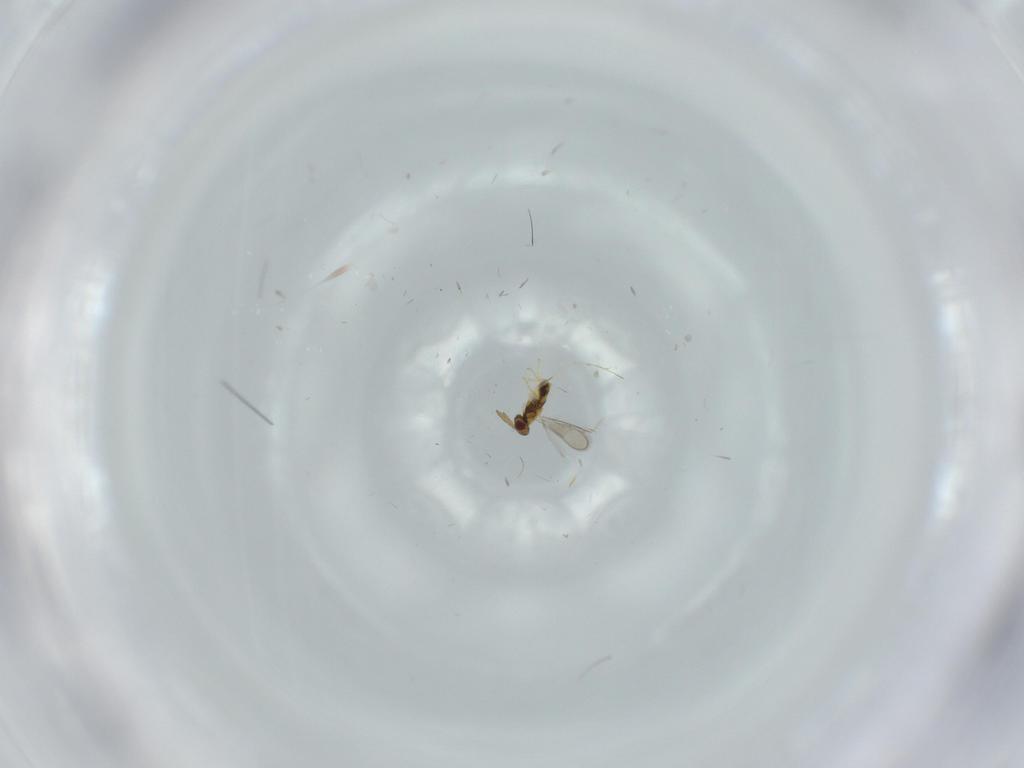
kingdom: Animalia
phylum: Arthropoda
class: Insecta
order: Hymenoptera
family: Aphelinidae
